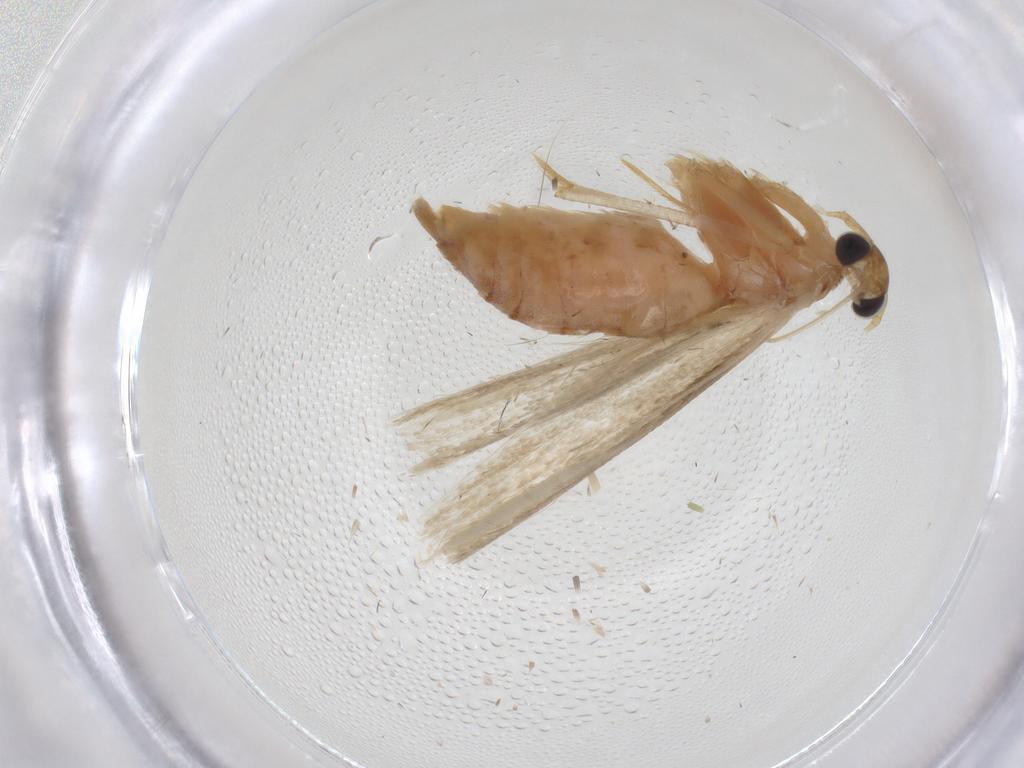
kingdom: Animalia
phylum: Arthropoda
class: Insecta
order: Lepidoptera
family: Blastobasidae
